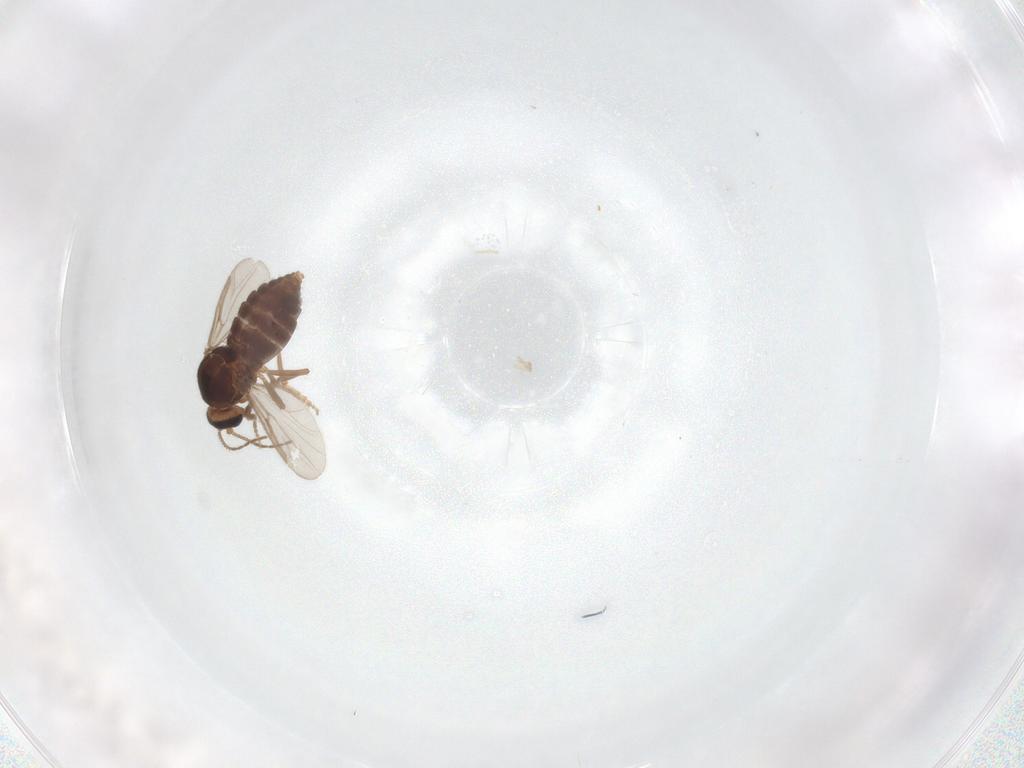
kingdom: Animalia
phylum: Arthropoda
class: Insecta
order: Diptera
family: Ceratopogonidae
